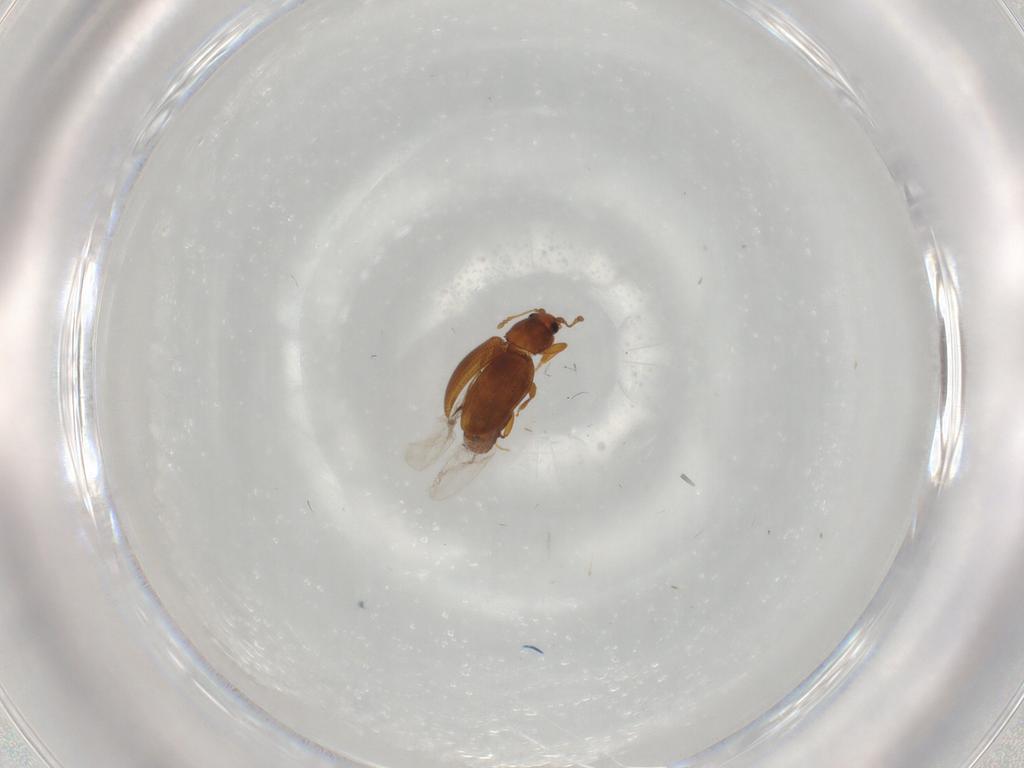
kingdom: Animalia
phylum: Arthropoda
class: Insecta
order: Coleoptera
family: Latridiidae
